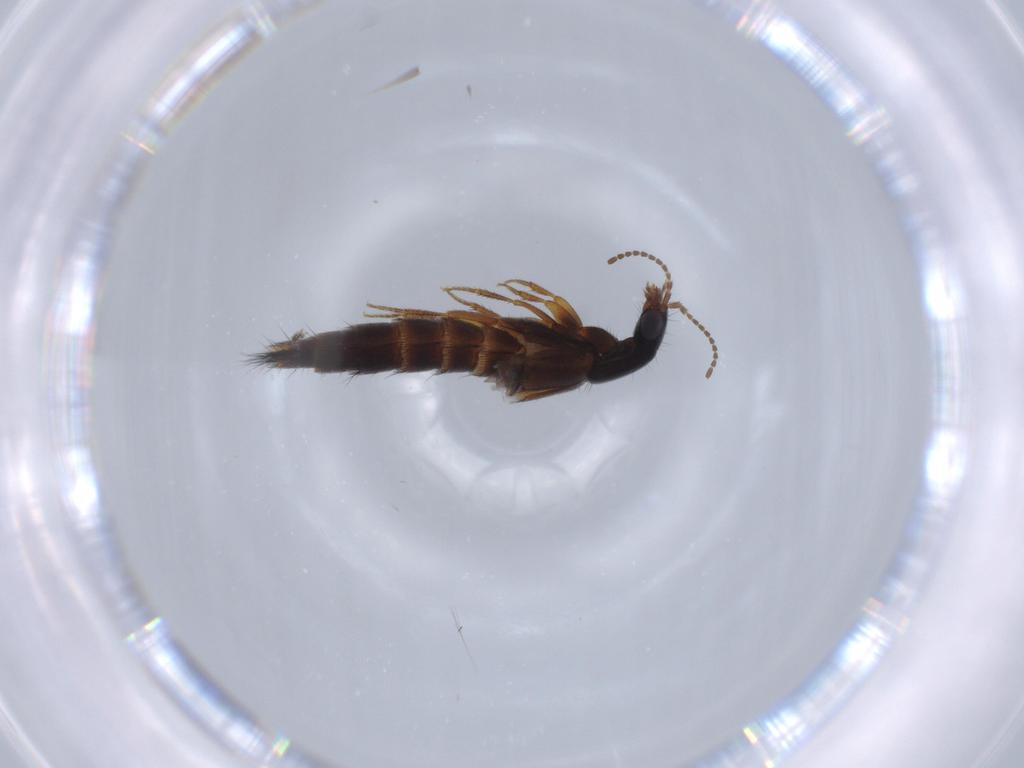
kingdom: Animalia
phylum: Arthropoda
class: Insecta
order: Coleoptera
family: Staphylinidae
